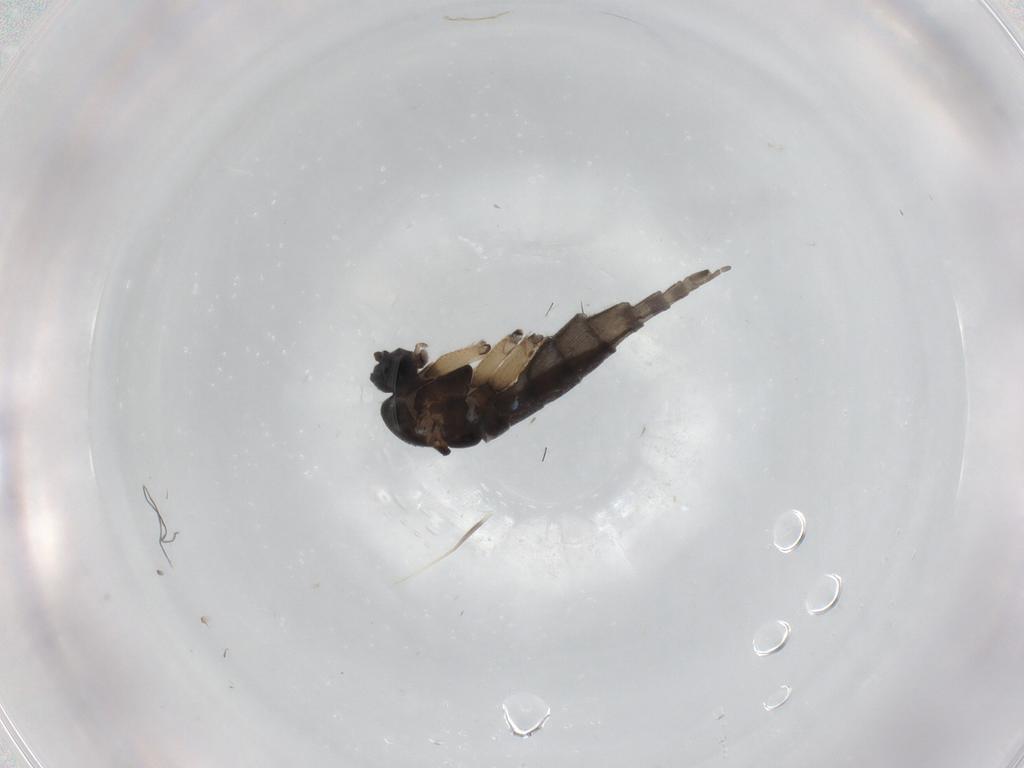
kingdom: Animalia
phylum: Arthropoda
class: Insecta
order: Diptera
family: Sciaridae
